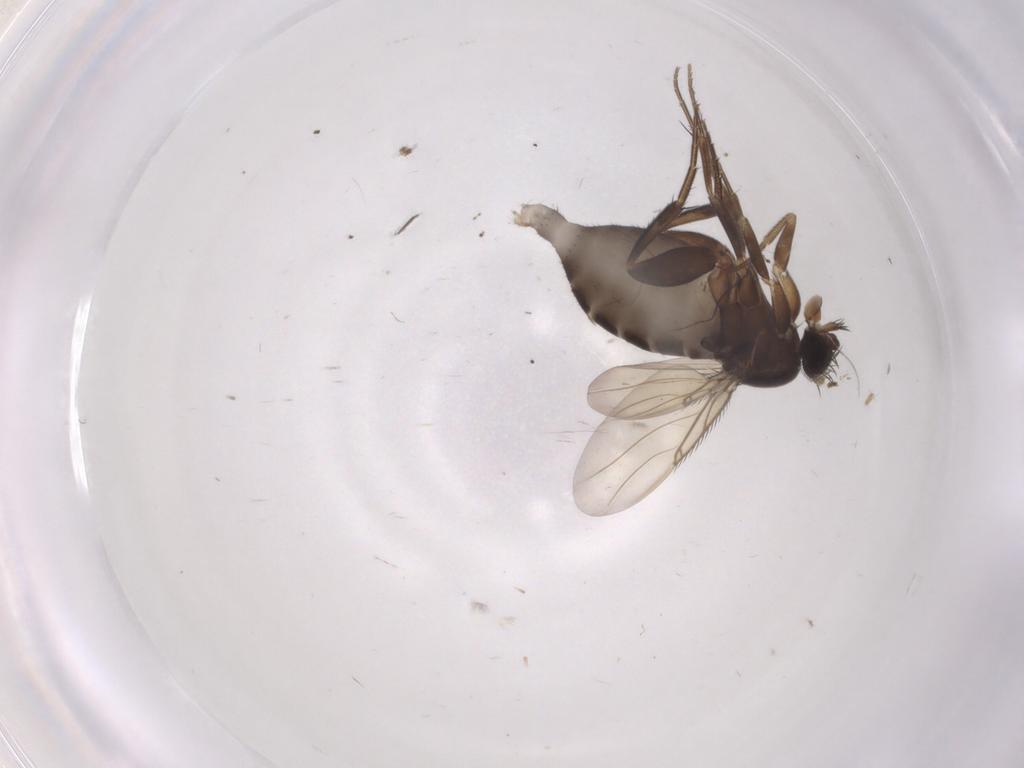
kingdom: Animalia
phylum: Arthropoda
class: Insecta
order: Diptera
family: Phoridae
